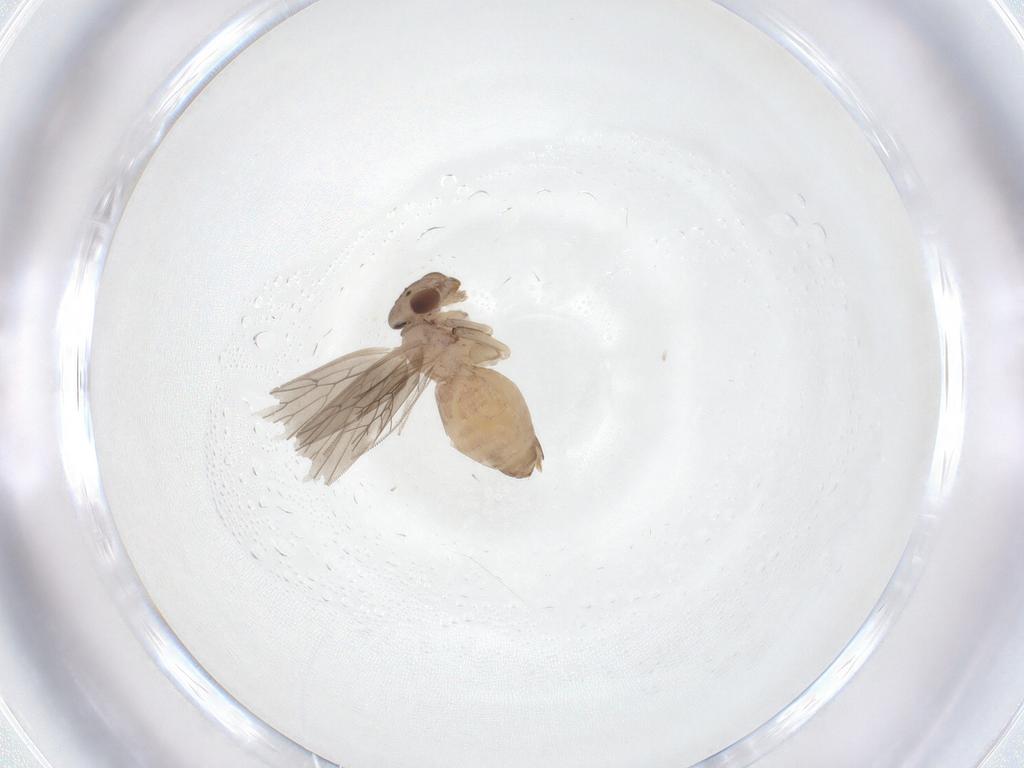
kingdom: Animalia
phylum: Arthropoda
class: Insecta
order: Psocodea
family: Lepidopsocidae
